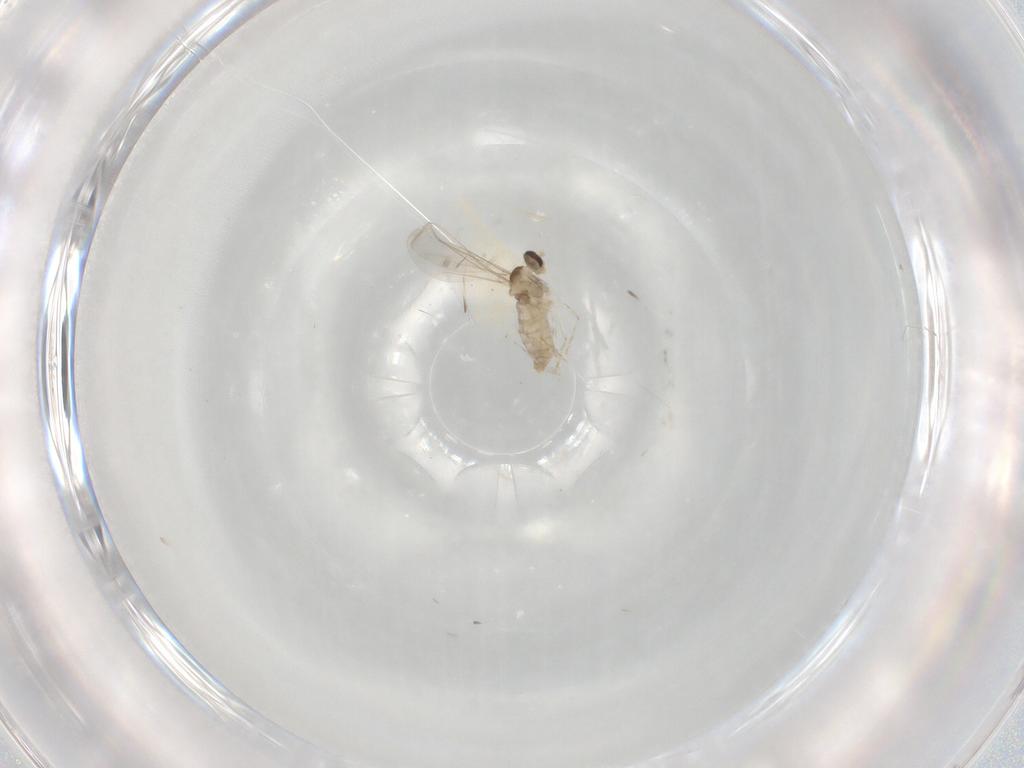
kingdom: Animalia
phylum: Arthropoda
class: Insecta
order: Diptera
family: Cecidomyiidae
